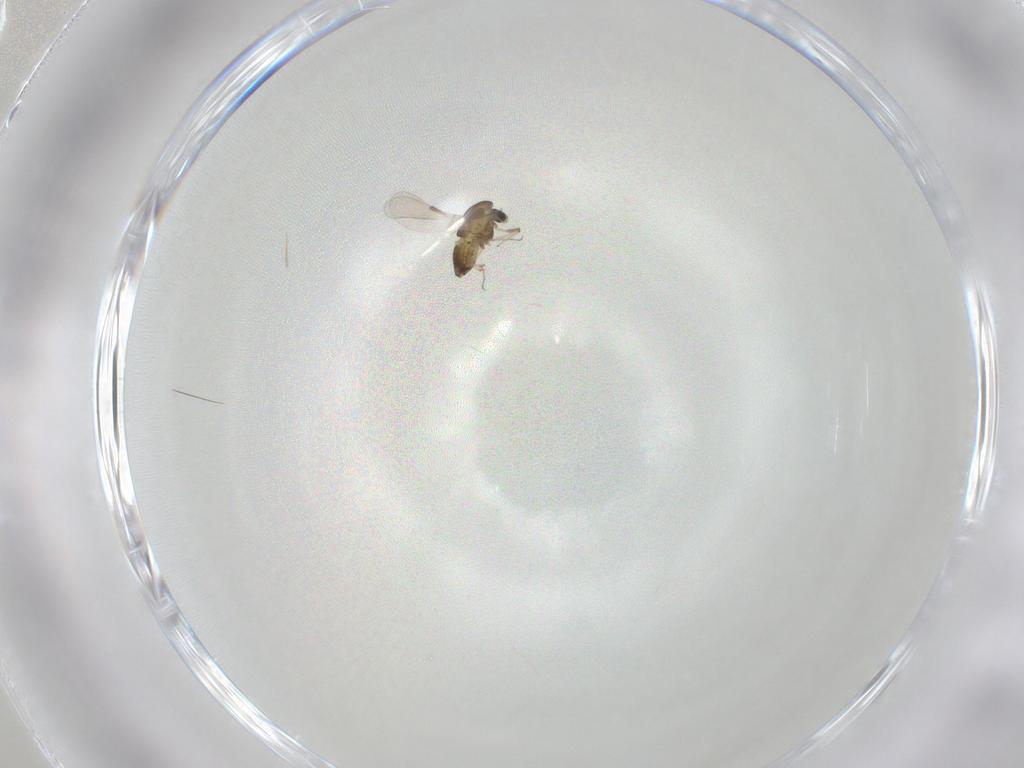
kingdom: Animalia
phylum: Arthropoda
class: Insecta
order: Diptera
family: Chironomidae
